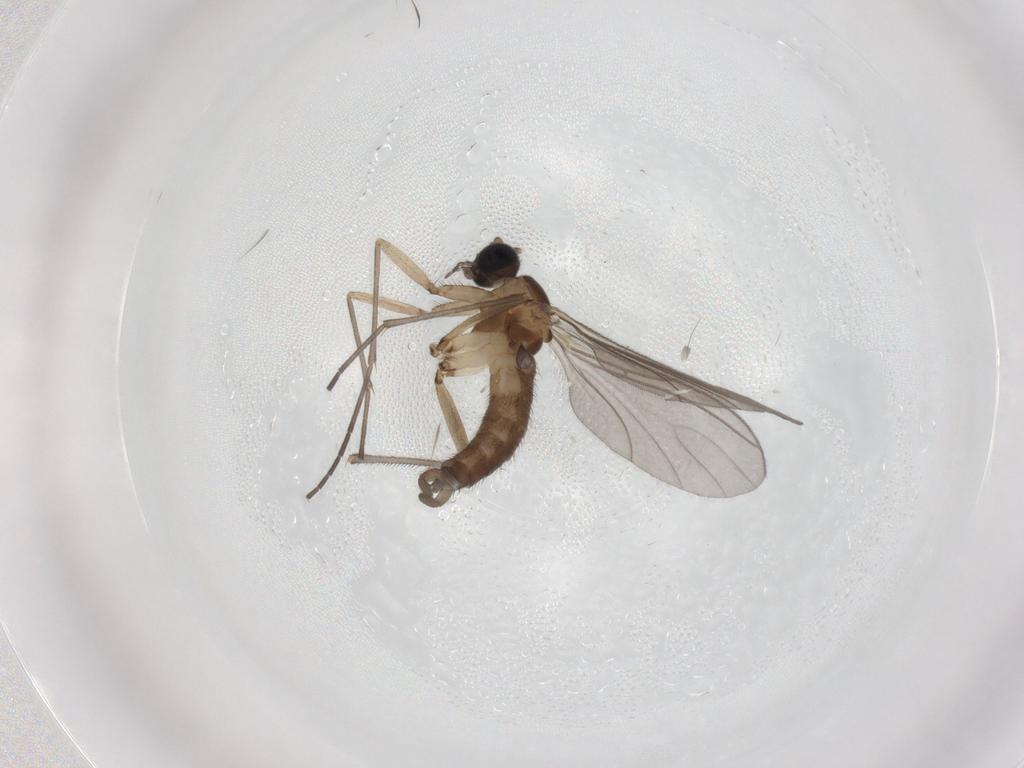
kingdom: Animalia
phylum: Arthropoda
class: Insecta
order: Diptera
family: Sciaridae
